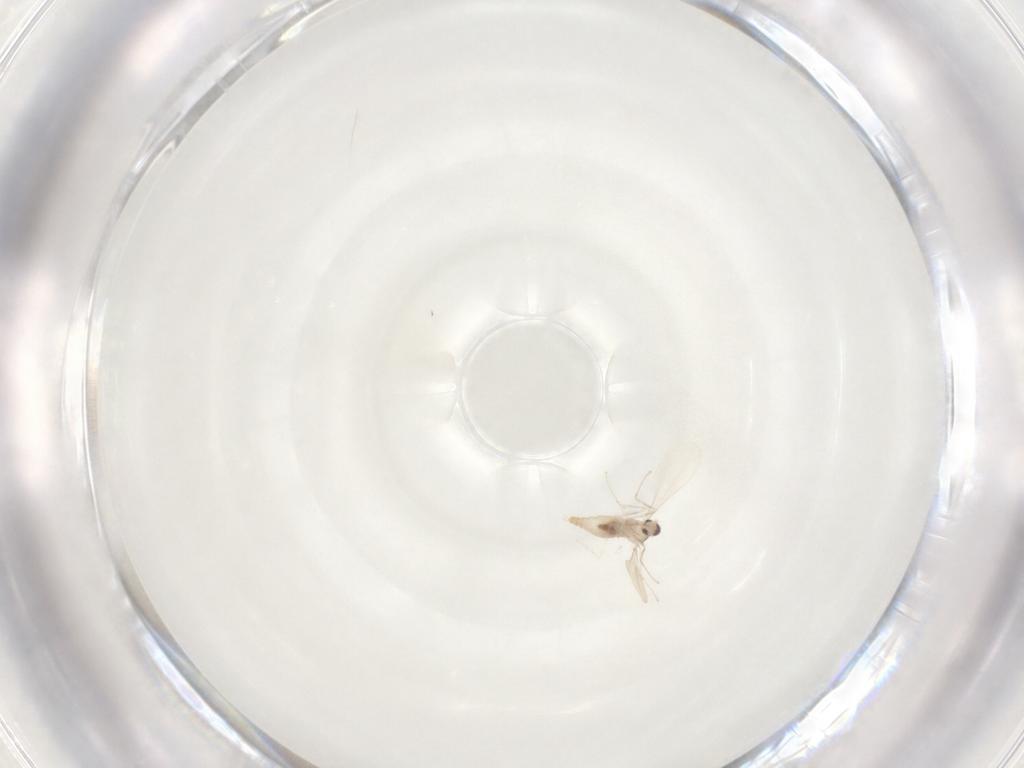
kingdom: Animalia
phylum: Arthropoda
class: Insecta
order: Diptera
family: Cecidomyiidae
